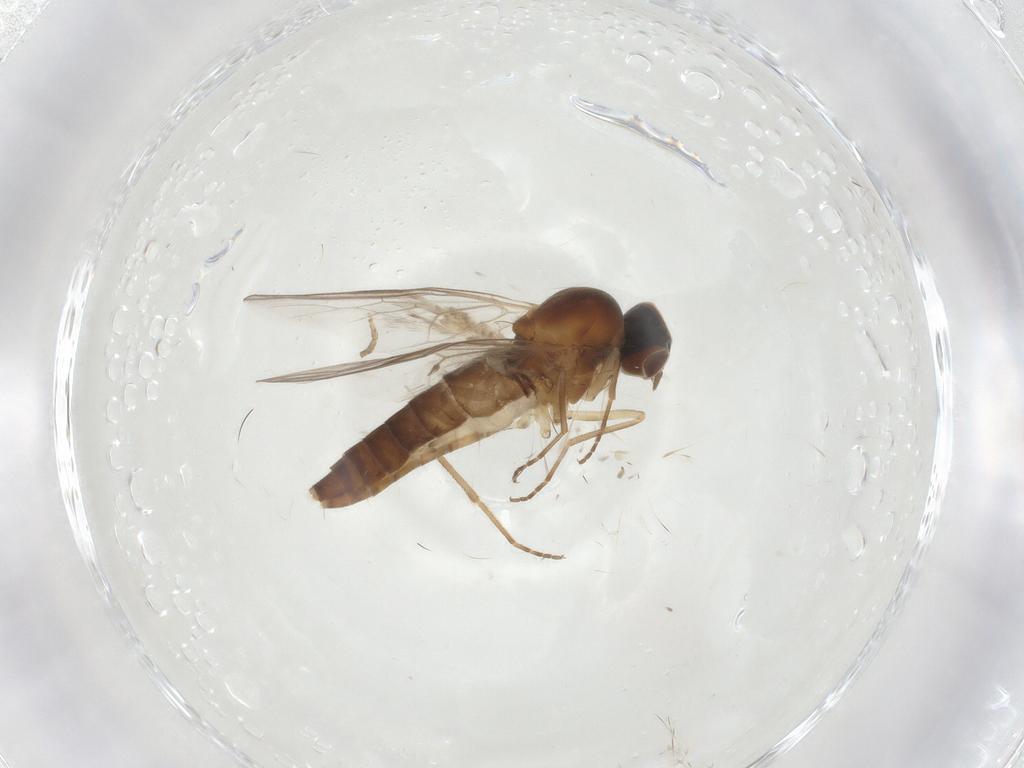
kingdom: Animalia
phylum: Arthropoda
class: Insecta
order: Diptera
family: Scenopinidae
